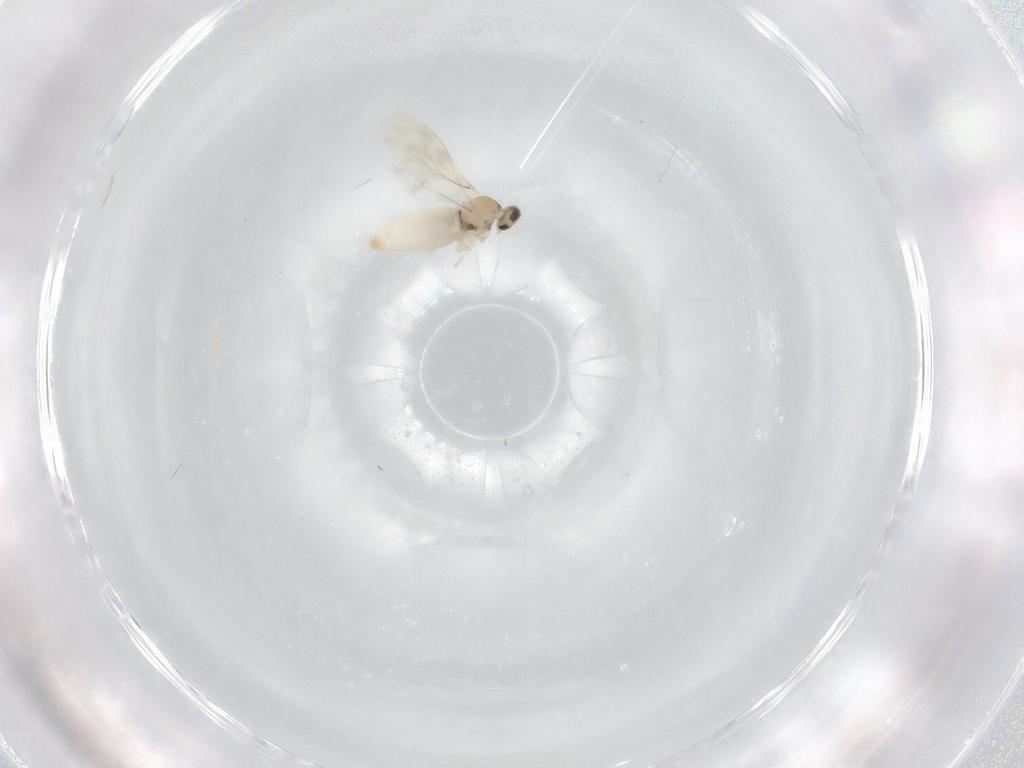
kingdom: Animalia
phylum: Arthropoda
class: Insecta
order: Diptera
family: Cecidomyiidae
